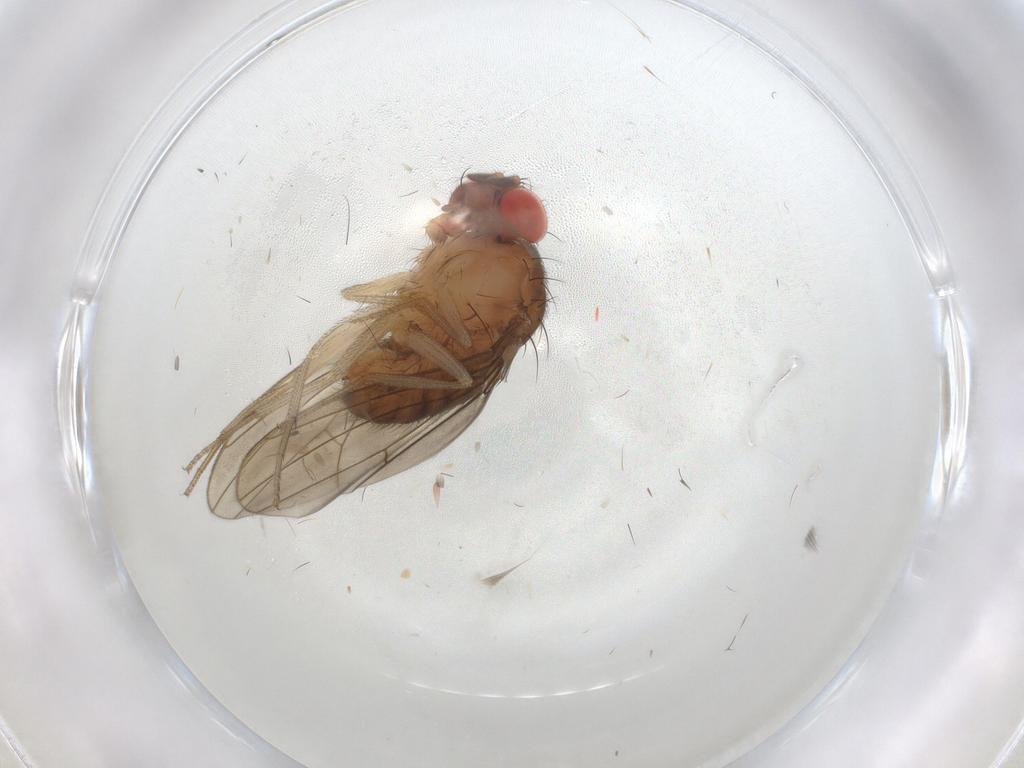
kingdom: Animalia
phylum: Arthropoda
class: Insecta
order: Diptera
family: Drosophilidae
